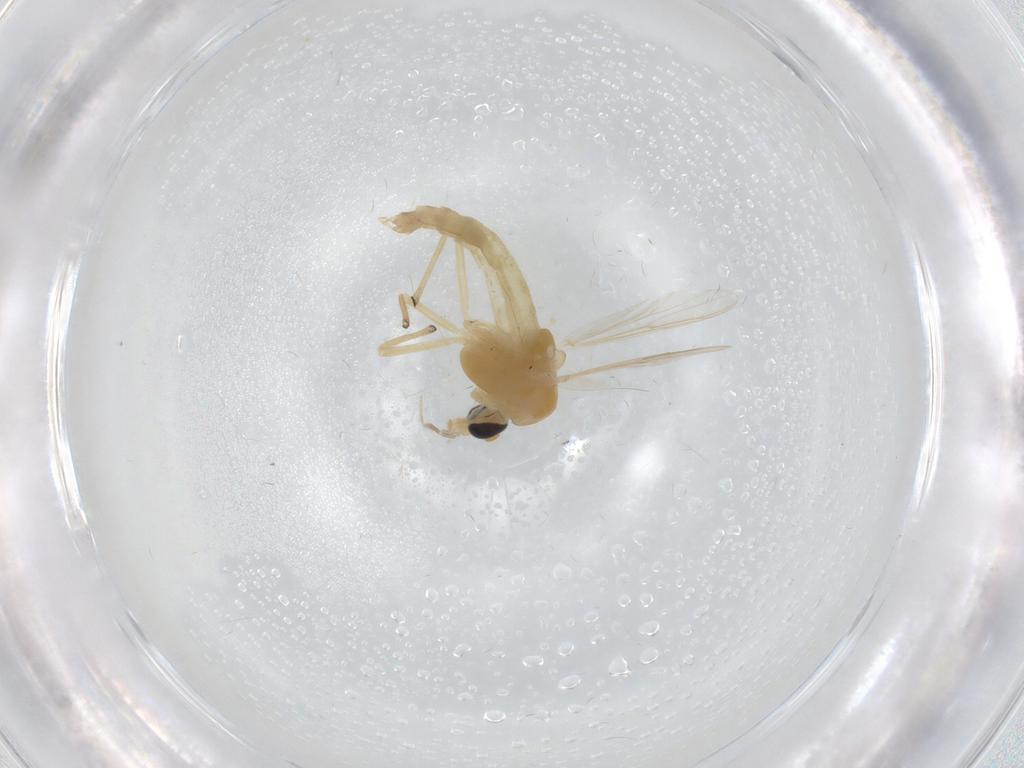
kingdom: Animalia
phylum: Arthropoda
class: Insecta
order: Diptera
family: Chironomidae
